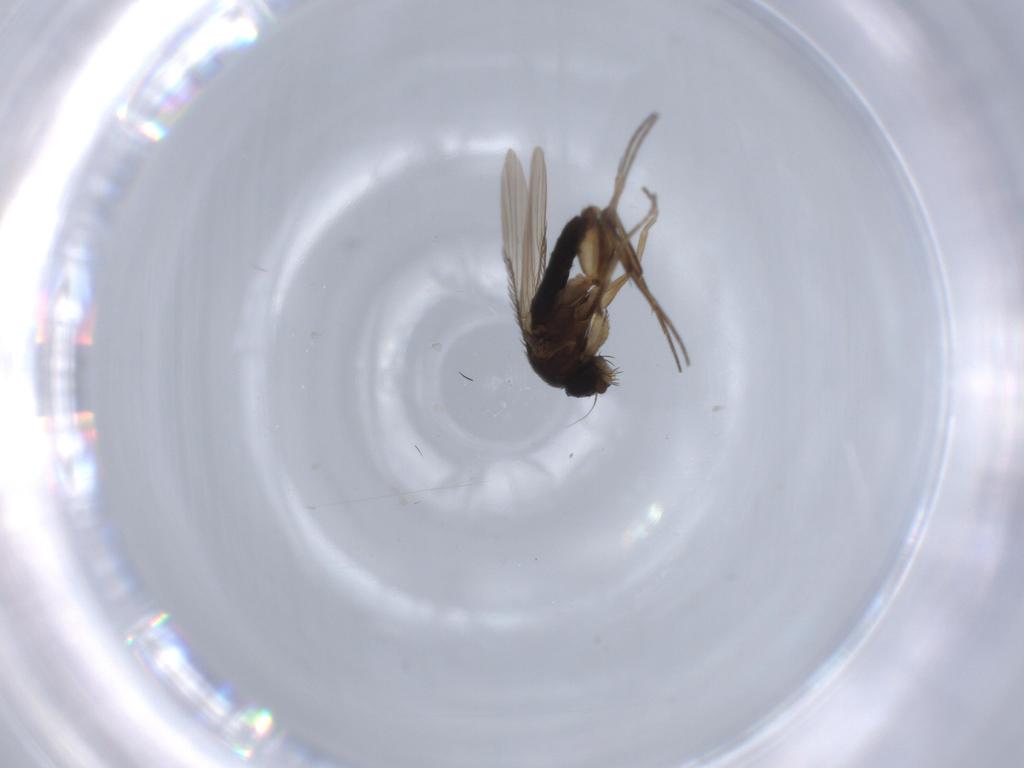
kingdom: Animalia
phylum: Arthropoda
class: Insecta
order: Diptera
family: Phoridae
